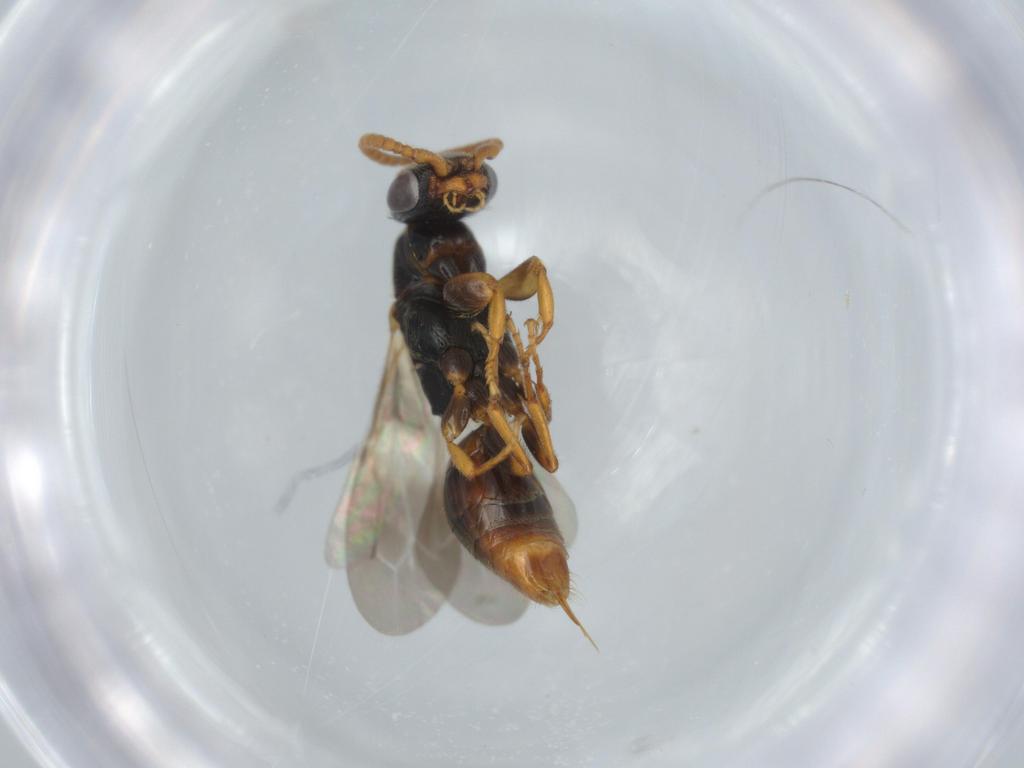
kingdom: Animalia
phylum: Arthropoda
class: Insecta
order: Hymenoptera
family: Bethylidae
